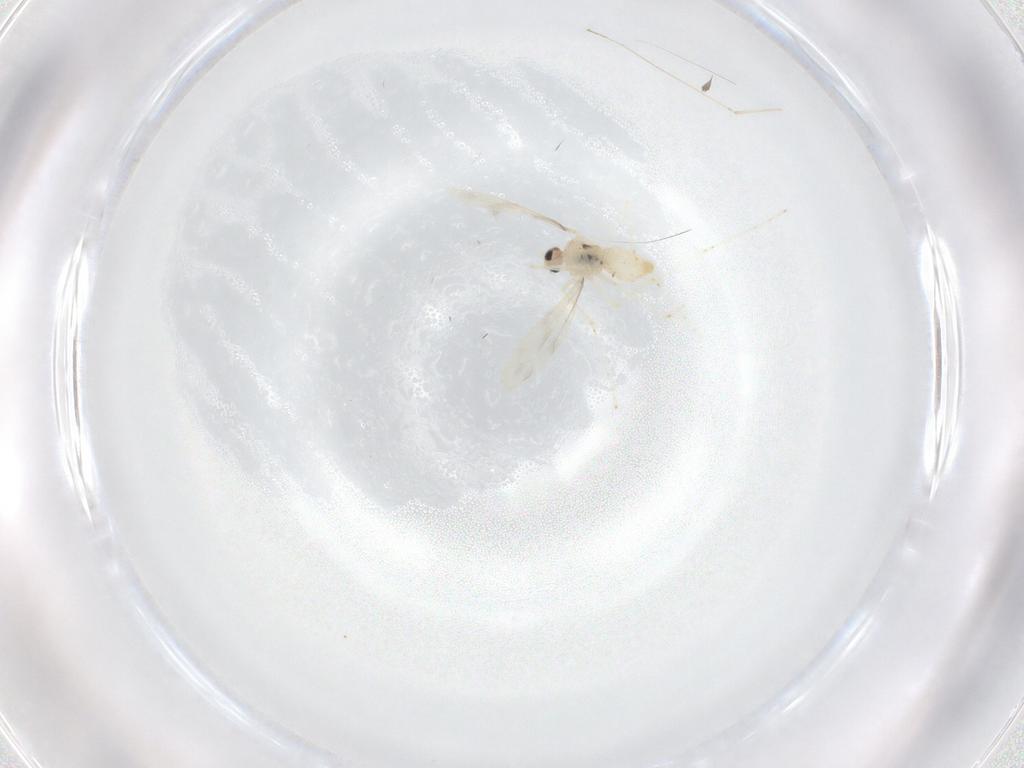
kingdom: Animalia
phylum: Arthropoda
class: Insecta
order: Diptera
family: Cecidomyiidae
